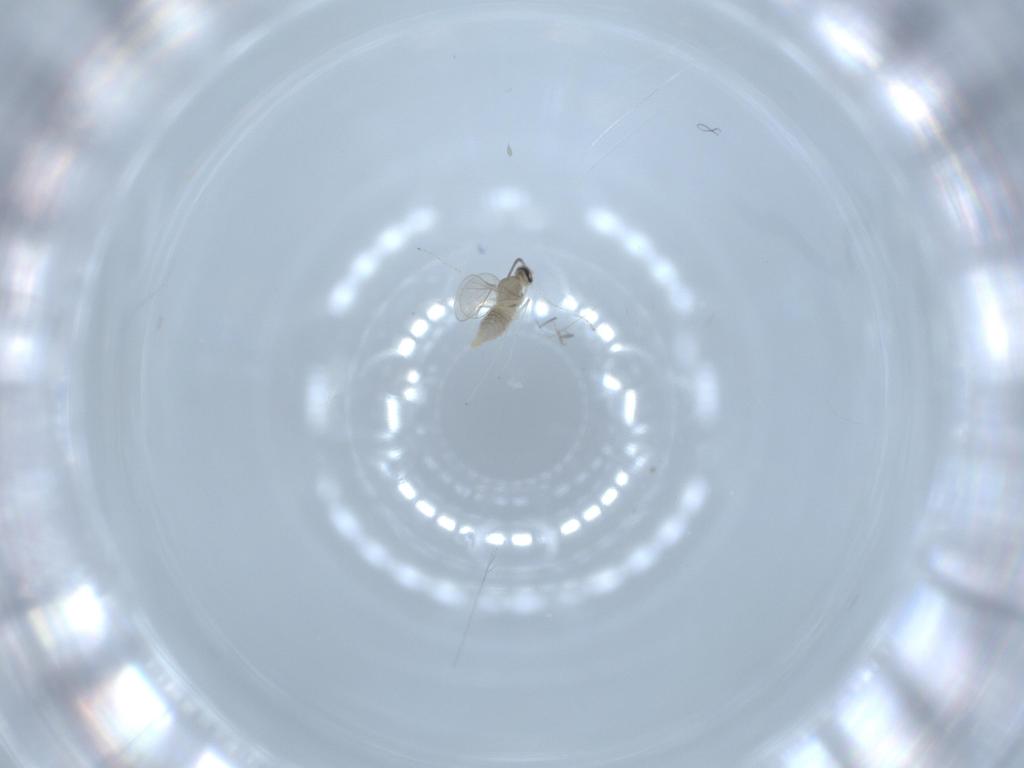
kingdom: Animalia
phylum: Arthropoda
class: Insecta
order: Diptera
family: Cecidomyiidae
